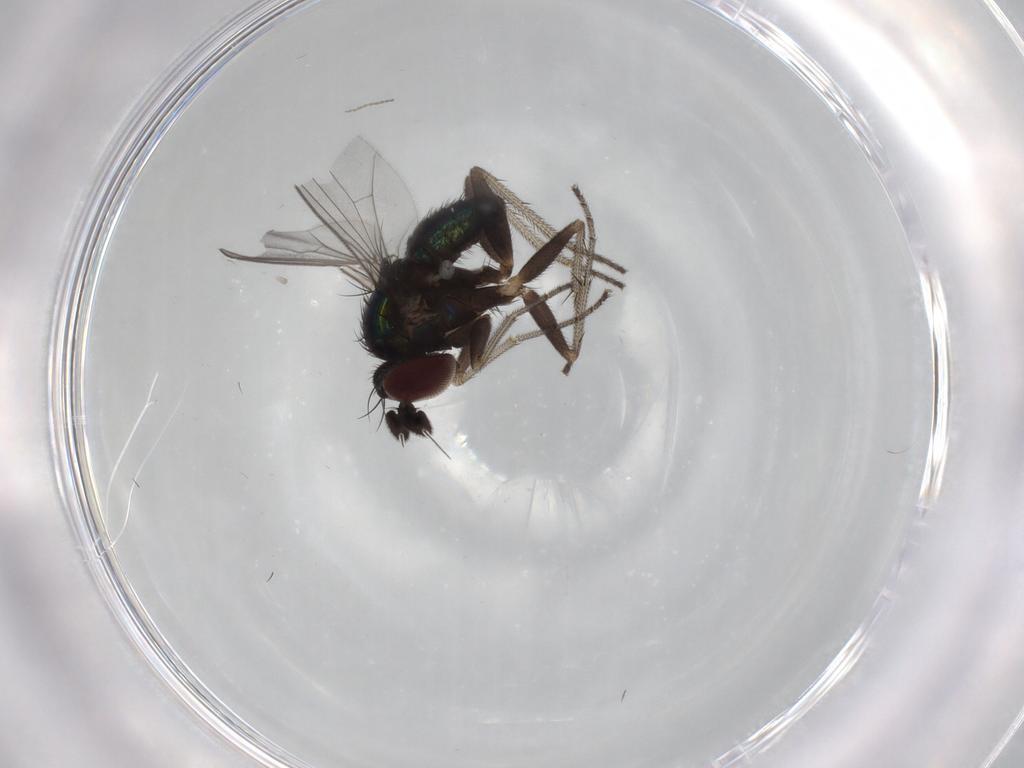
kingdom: Animalia
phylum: Arthropoda
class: Insecta
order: Diptera
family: Dolichopodidae
